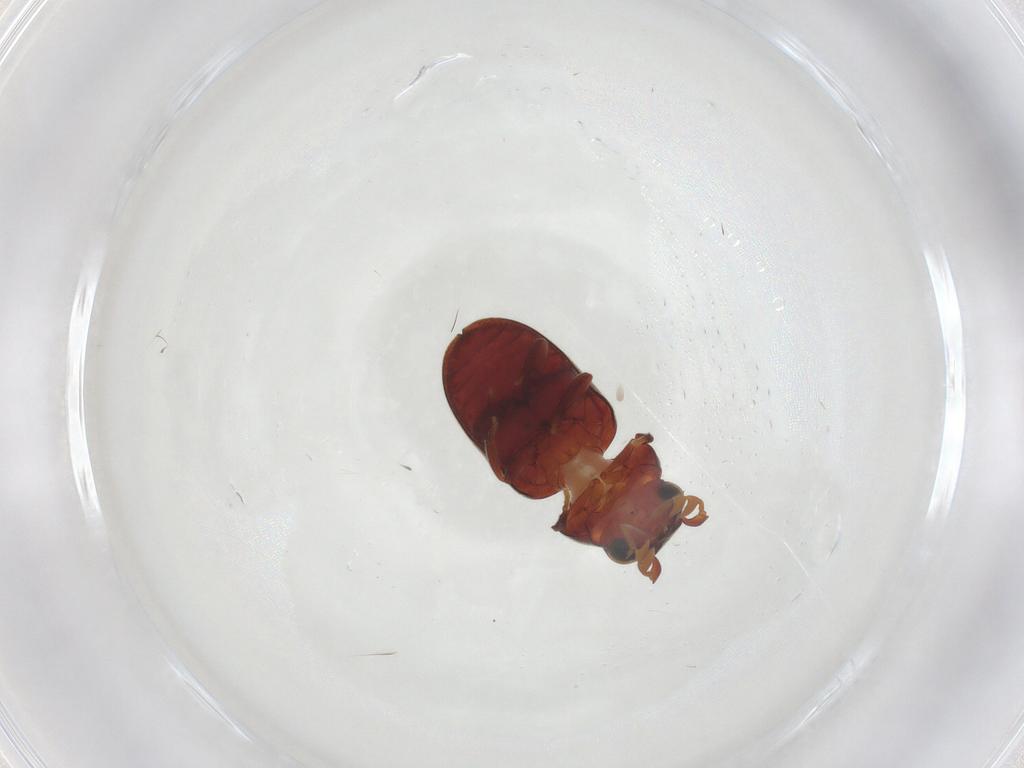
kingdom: Animalia
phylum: Arthropoda
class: Insecta
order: Coleoptera
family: Ptinidae
